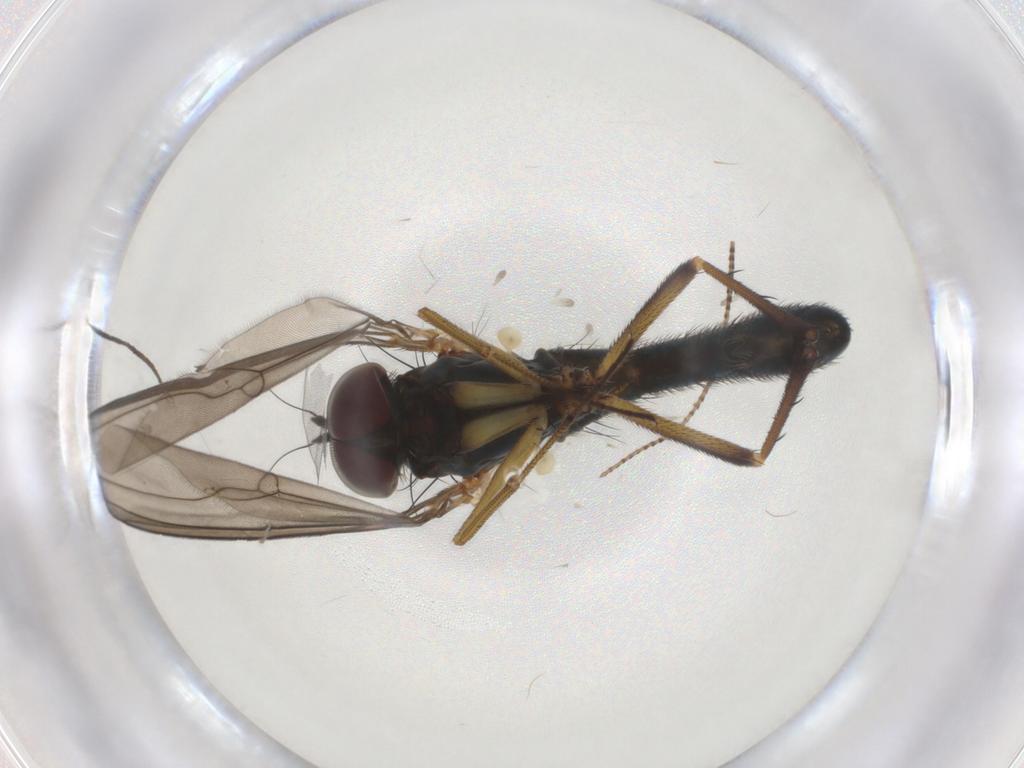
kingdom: Animalia
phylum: Arthropoda
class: Insecta
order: Diptera
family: Dolichopodidae
